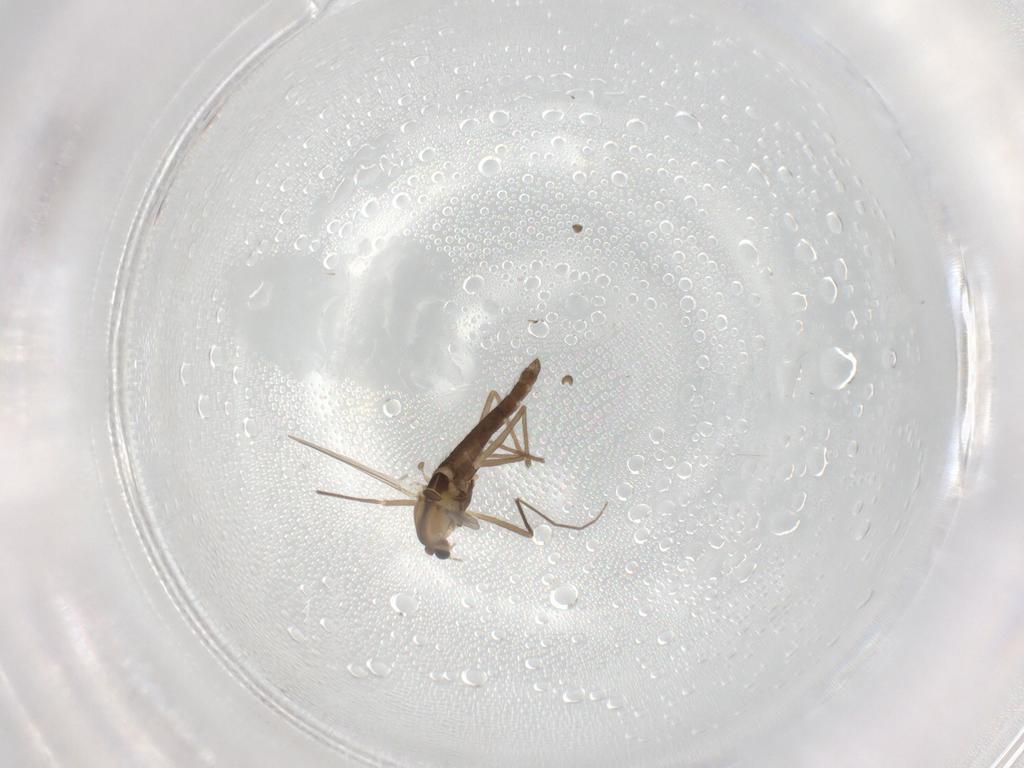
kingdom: Animalia
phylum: Arthropoda
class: Insecta
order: Diptera
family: Chironomidae
